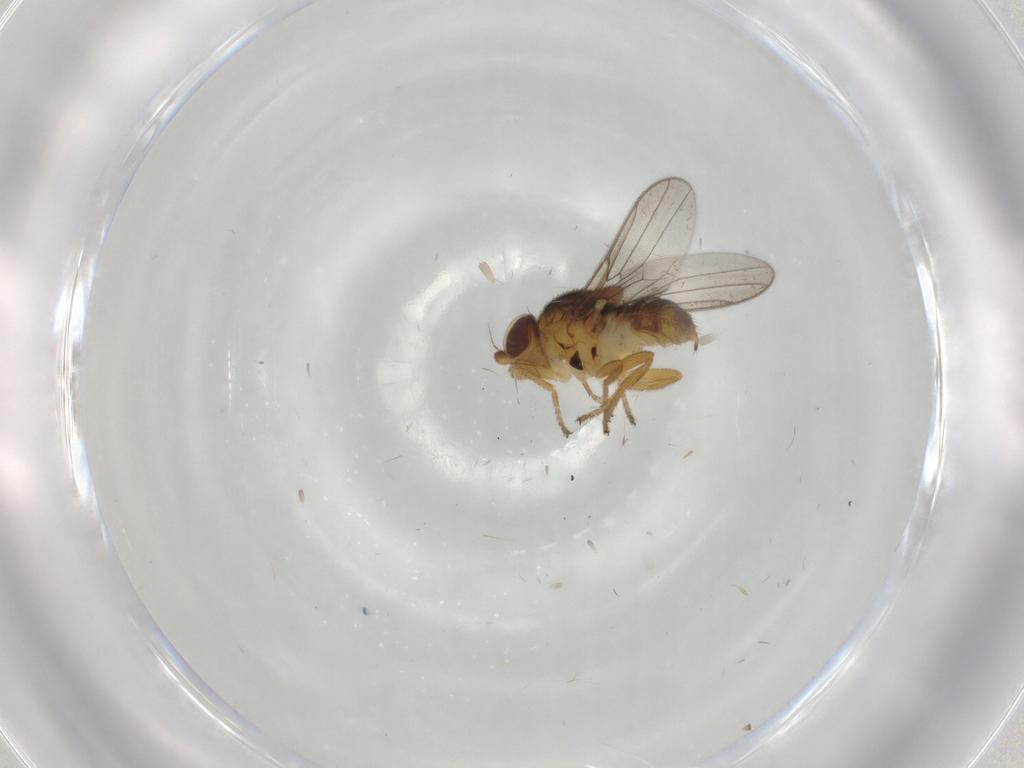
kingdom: Animalia
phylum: Arthropoda
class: Insecta
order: Diptera
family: Chloropidae
